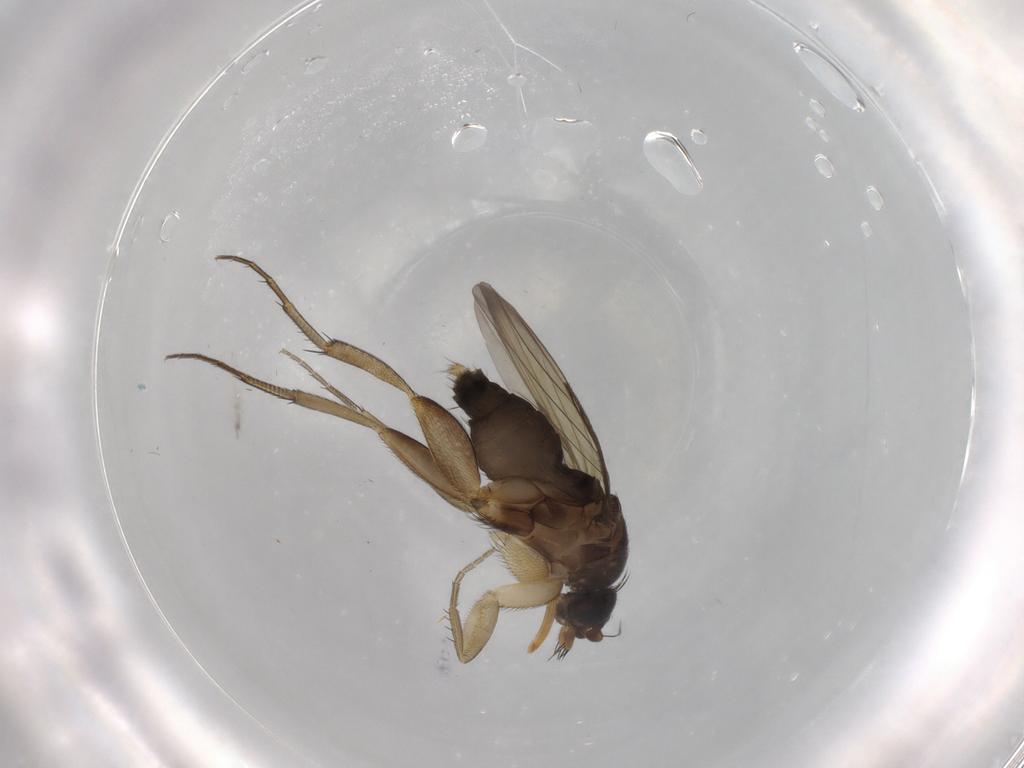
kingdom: Animalia
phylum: Arthropoda
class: Insecta
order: Diptera
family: Phoridae
